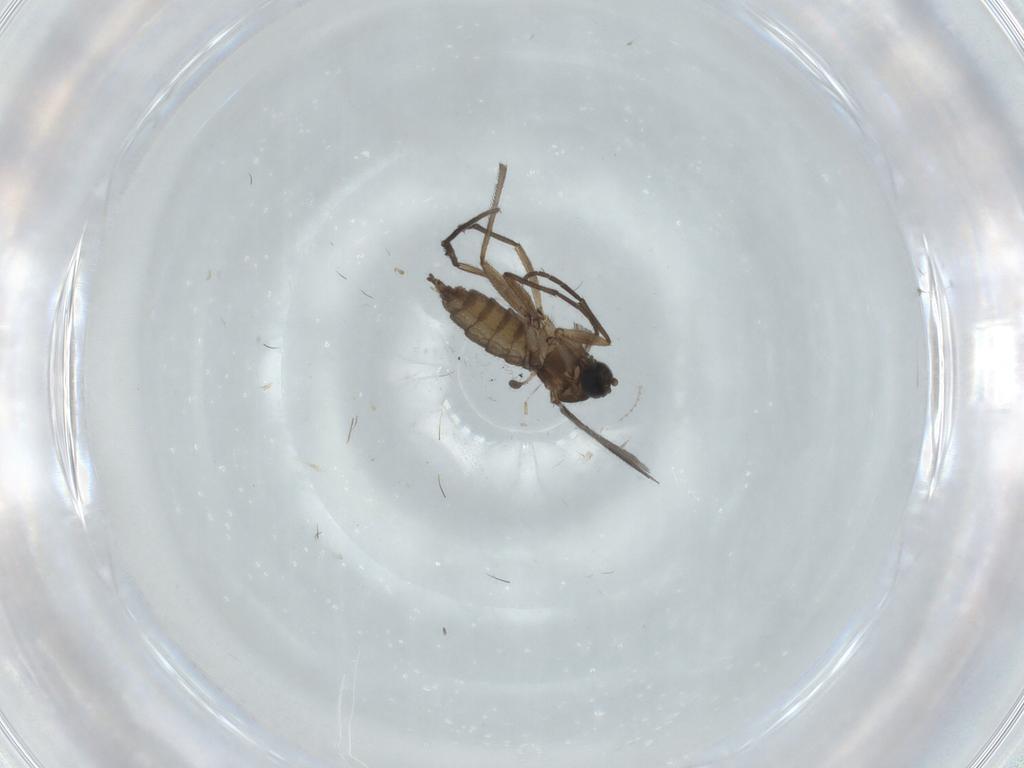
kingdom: Animalia
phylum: Arthropoda
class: Insecta
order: Diptera
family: Sciaridae
